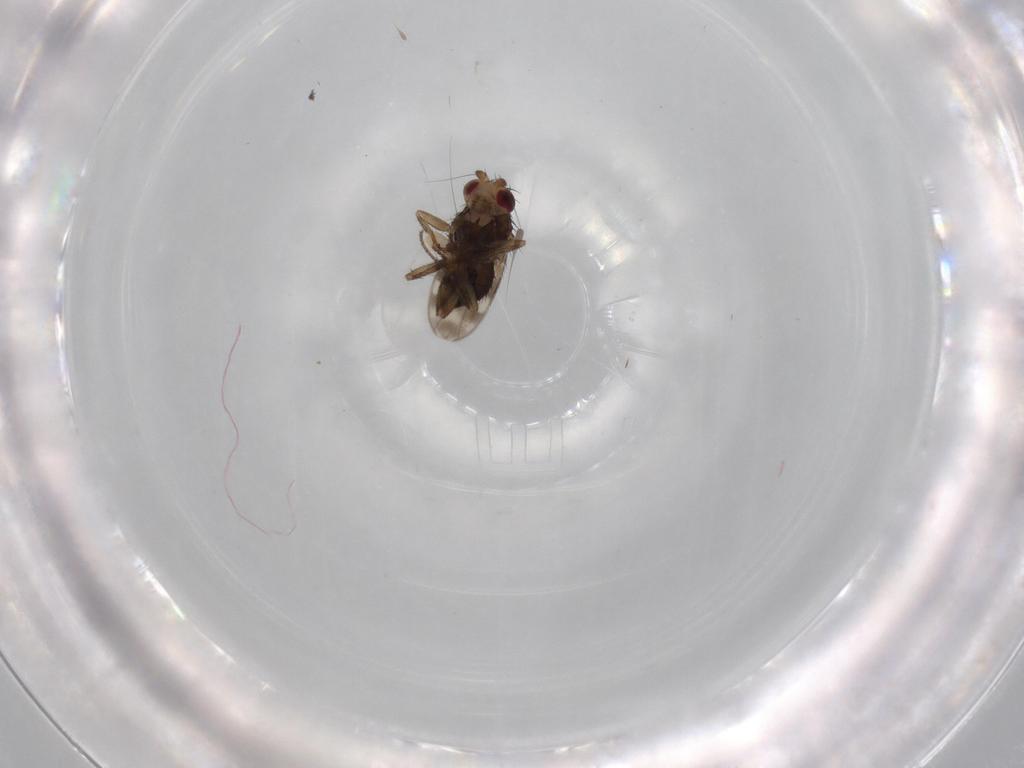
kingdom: Animalia
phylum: Arthropoda
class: Insecta
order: Diptera
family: Sphaeroceridae
